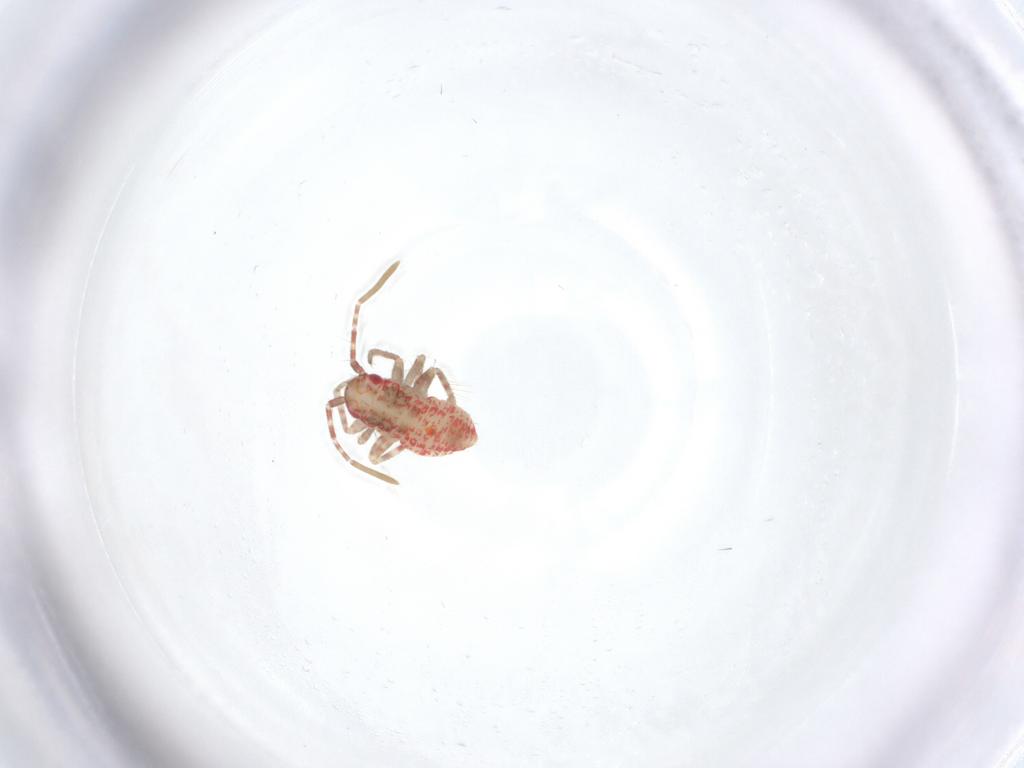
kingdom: Animalia
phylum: Arthropoda
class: Insecta
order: Hemiptera
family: Miridae
